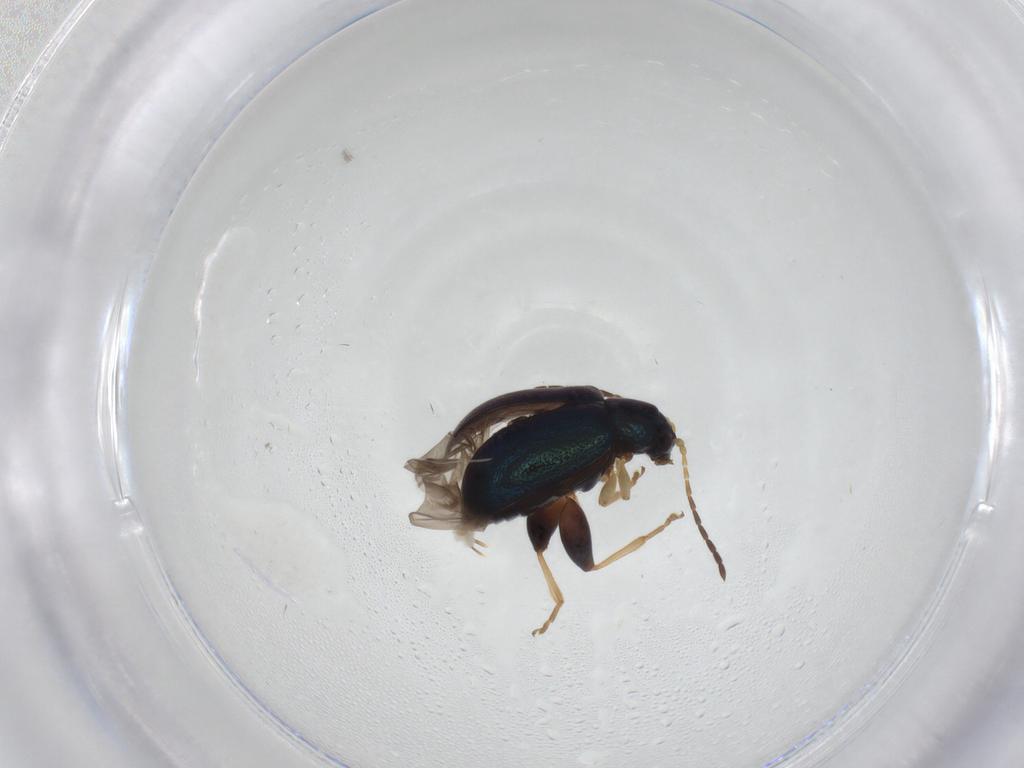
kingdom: Animalia
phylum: Arthropoda
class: Insecta
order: Coleoptera
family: Chrysomelidae
